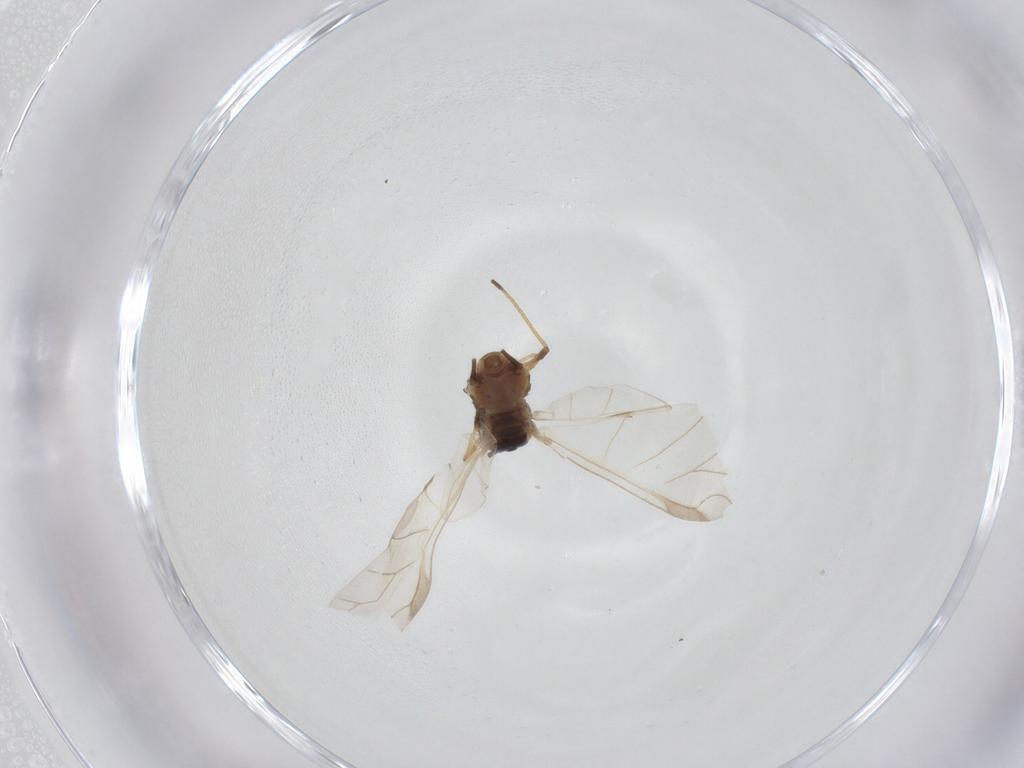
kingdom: Animalia
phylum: Arthropoda
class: Insecta
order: Hemiptera
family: Aphididae
